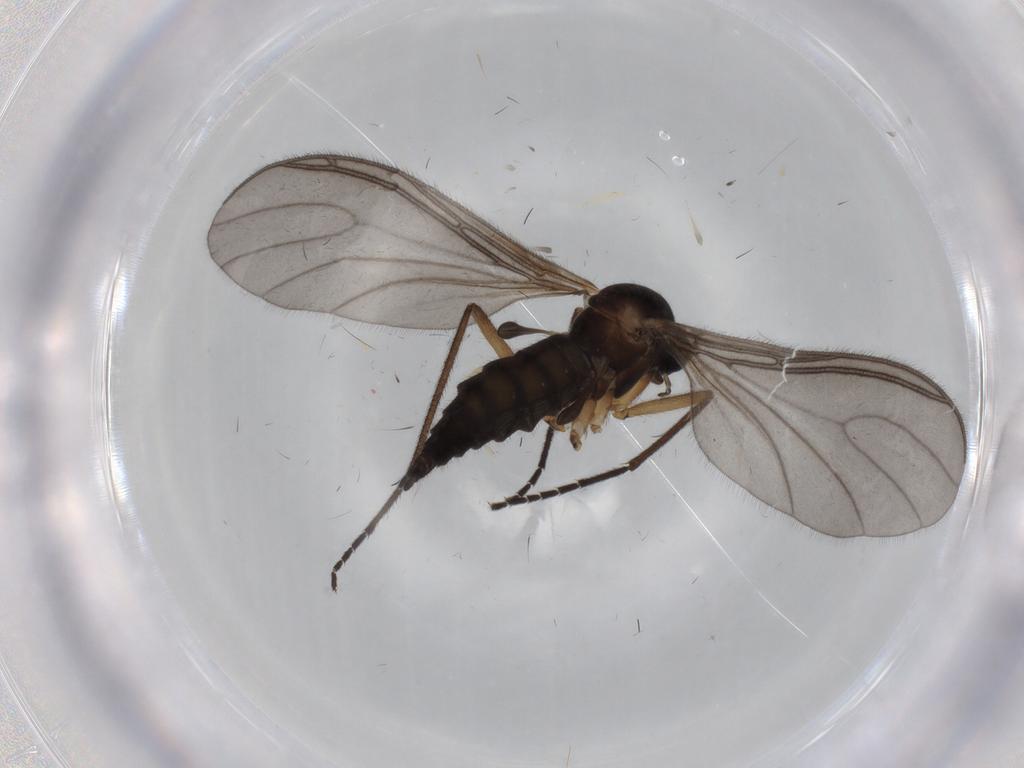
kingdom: Animalia
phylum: Arthropoda
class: Insecta
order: Diptera
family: Sciaridae
